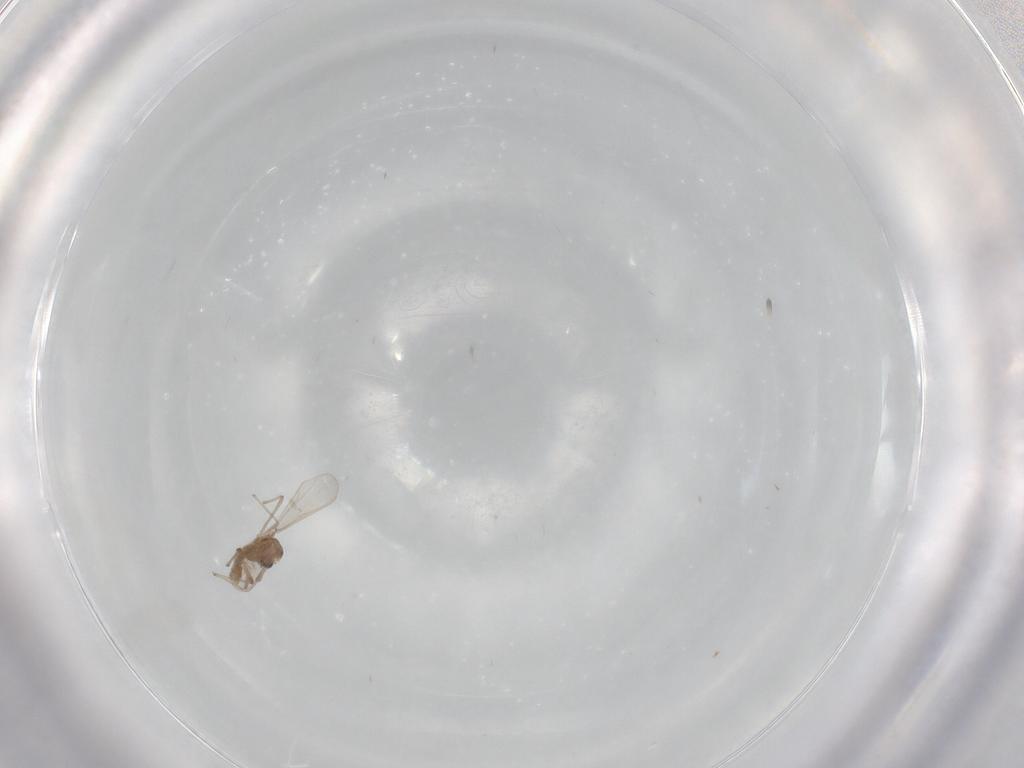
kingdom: Animalia
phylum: Arthropoda
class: Insecta
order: Diptera
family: Chironomidae
